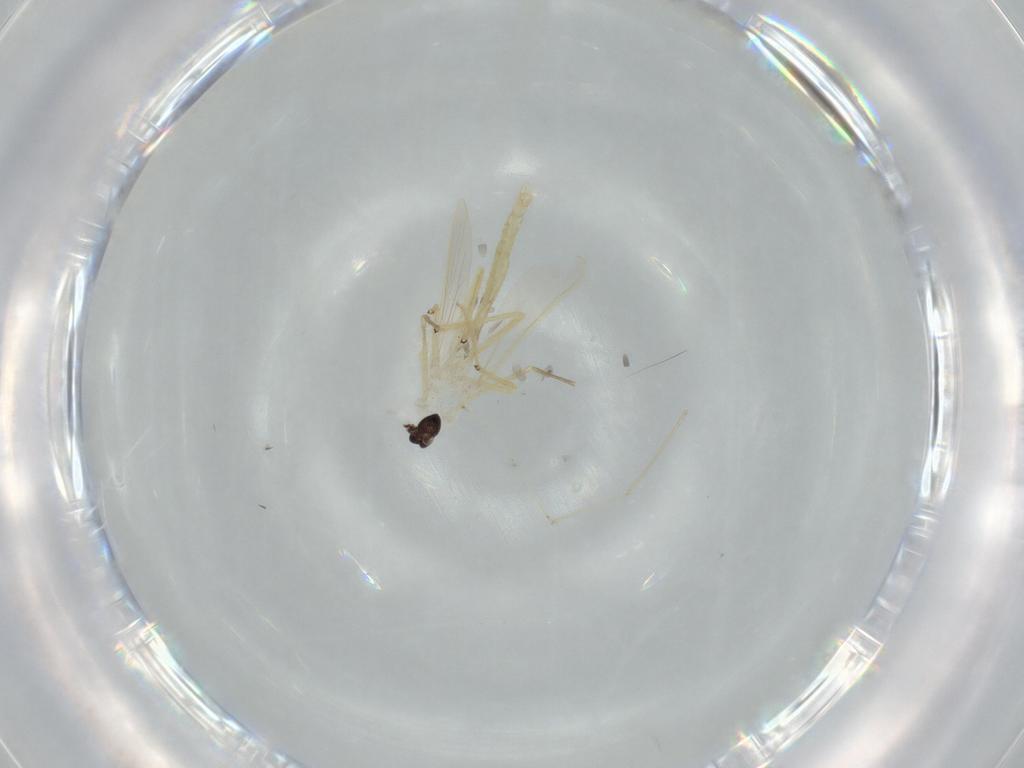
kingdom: Animalia
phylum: Arthropoda
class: Insecta
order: Diptera
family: Chironomidae
